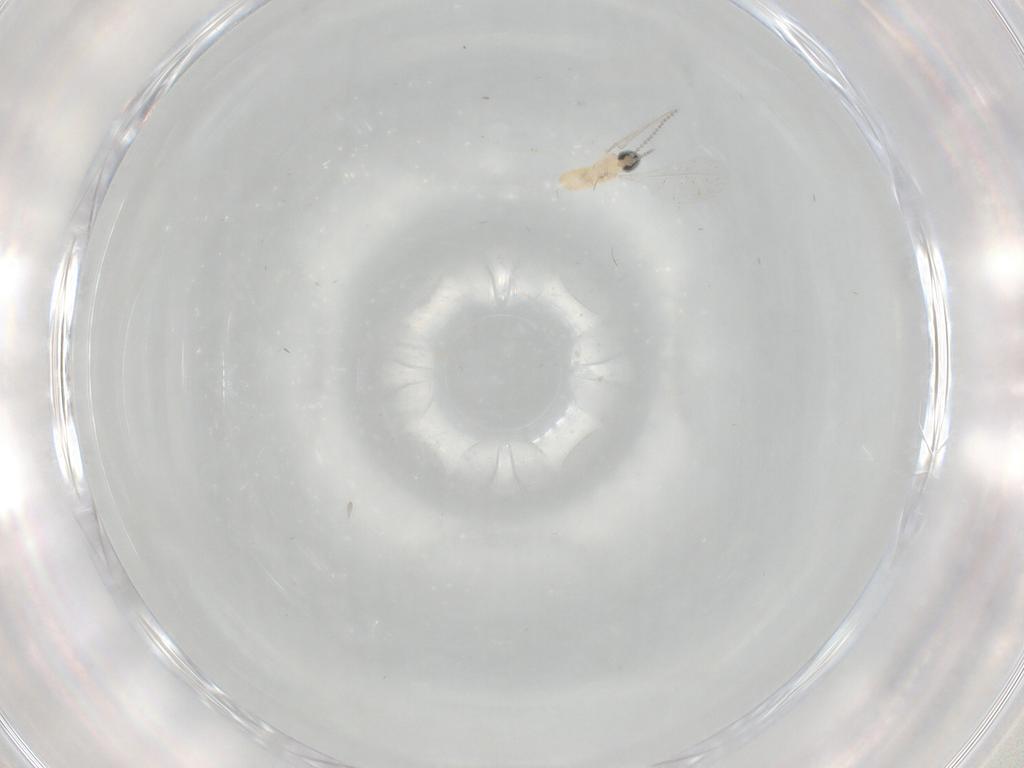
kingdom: Animalia
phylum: Arthropoda
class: Insecta
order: Diptera
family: Cecidomyiidae
